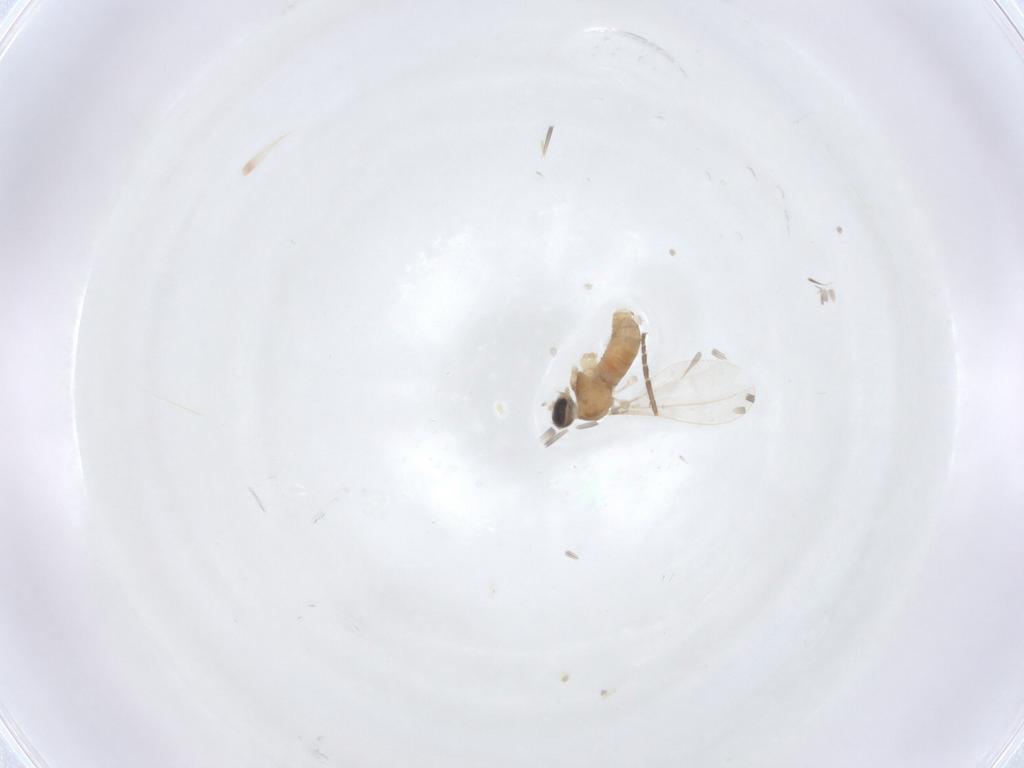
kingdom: Animalia
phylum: Arthropoda
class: Insecta
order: Diptera
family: Cecidomyiidae
